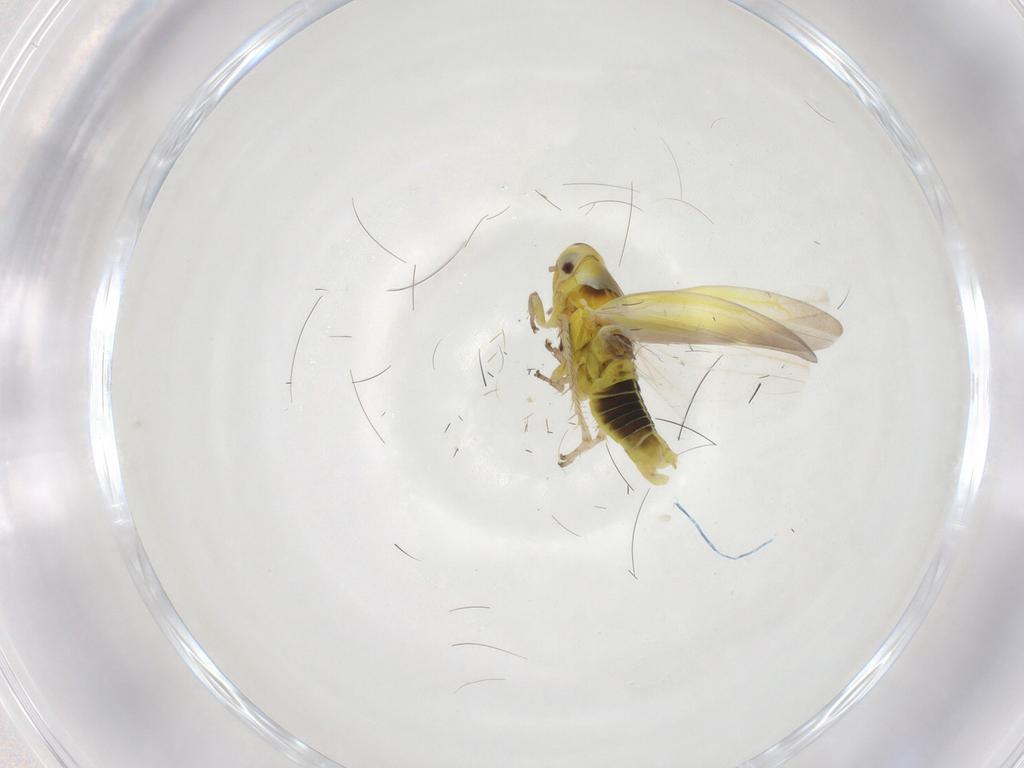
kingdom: Animalia
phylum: Arthropoda
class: Insecta
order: Hemiptera
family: Cicadellidae
